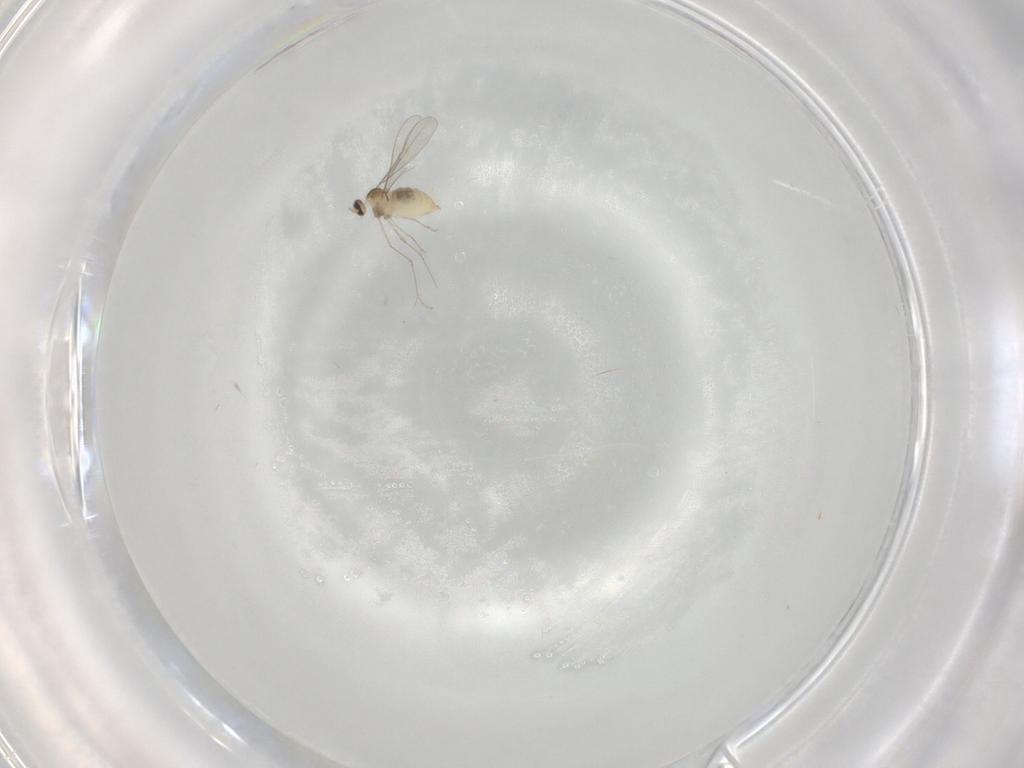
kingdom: Animalia
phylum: Arthropoda
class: Insecta
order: Diptera
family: Cecidomyiidae
